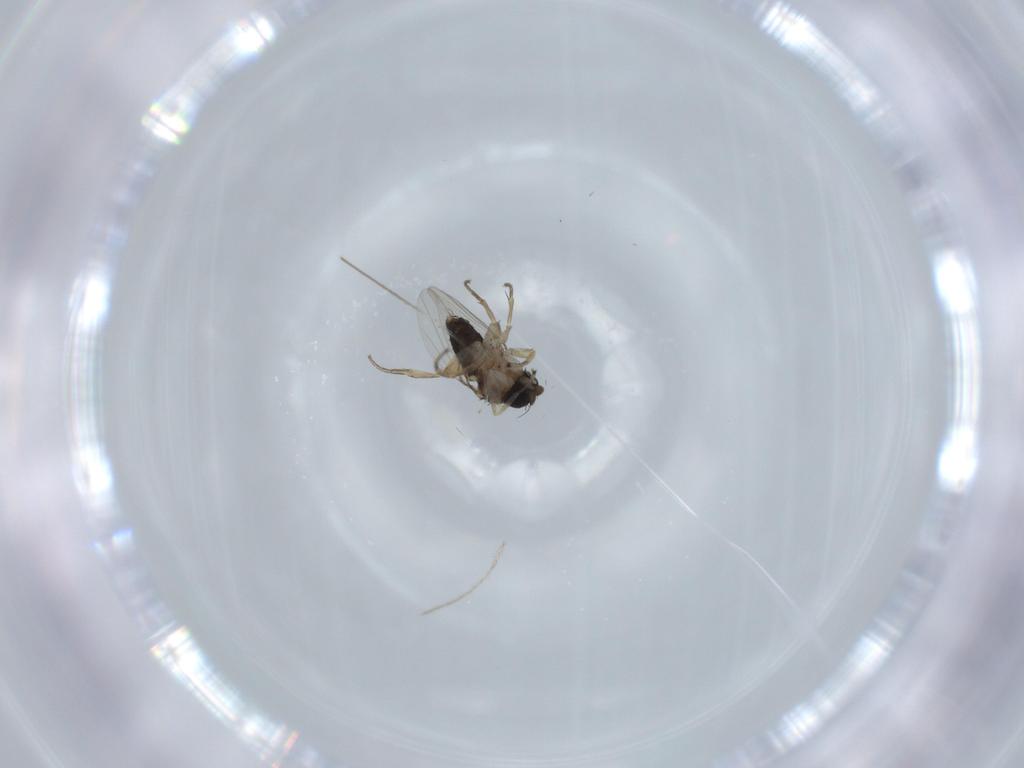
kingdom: Animalia
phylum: Arthropoda
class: Insecta
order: Diptera
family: Phoridae
